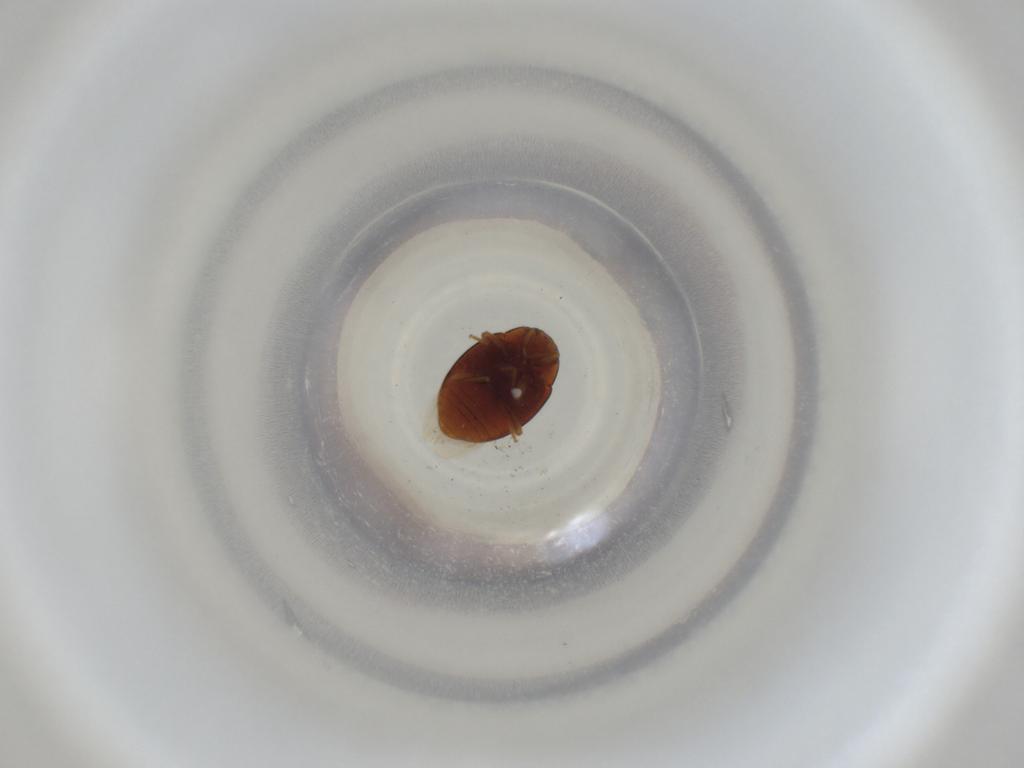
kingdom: Animalia
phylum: Arthropoda
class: Insecta
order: Coleoptera
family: Coccinellidae
